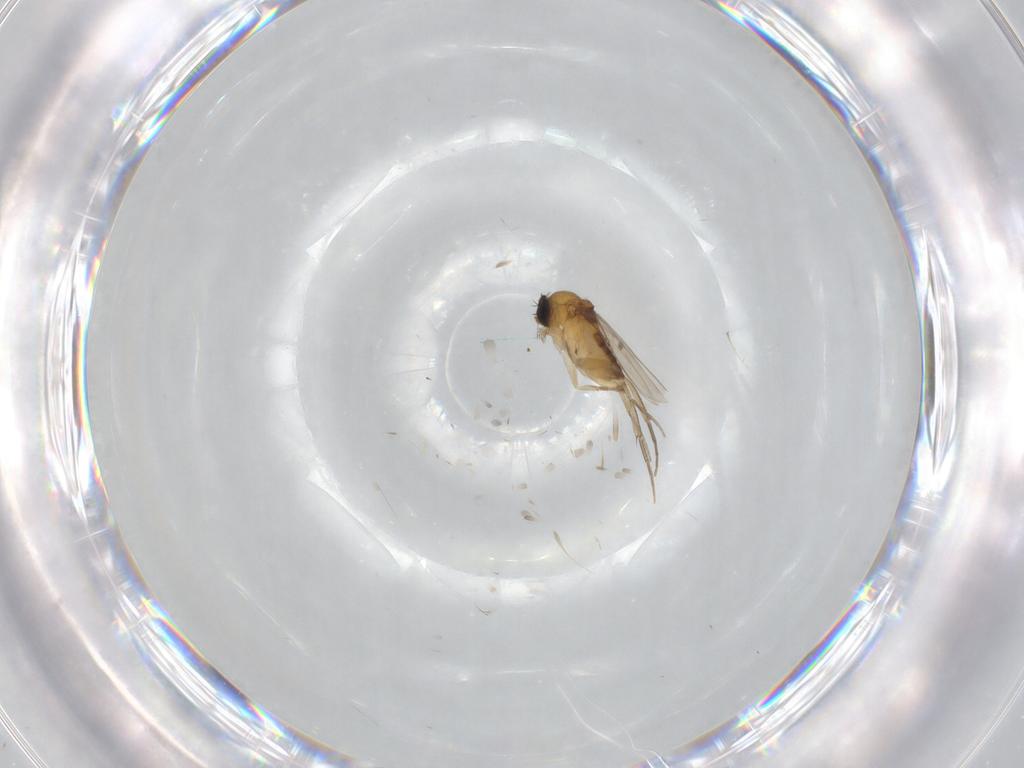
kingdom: Animalia
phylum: Arthropoda
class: Insecta
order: Diptera
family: Phoridae
